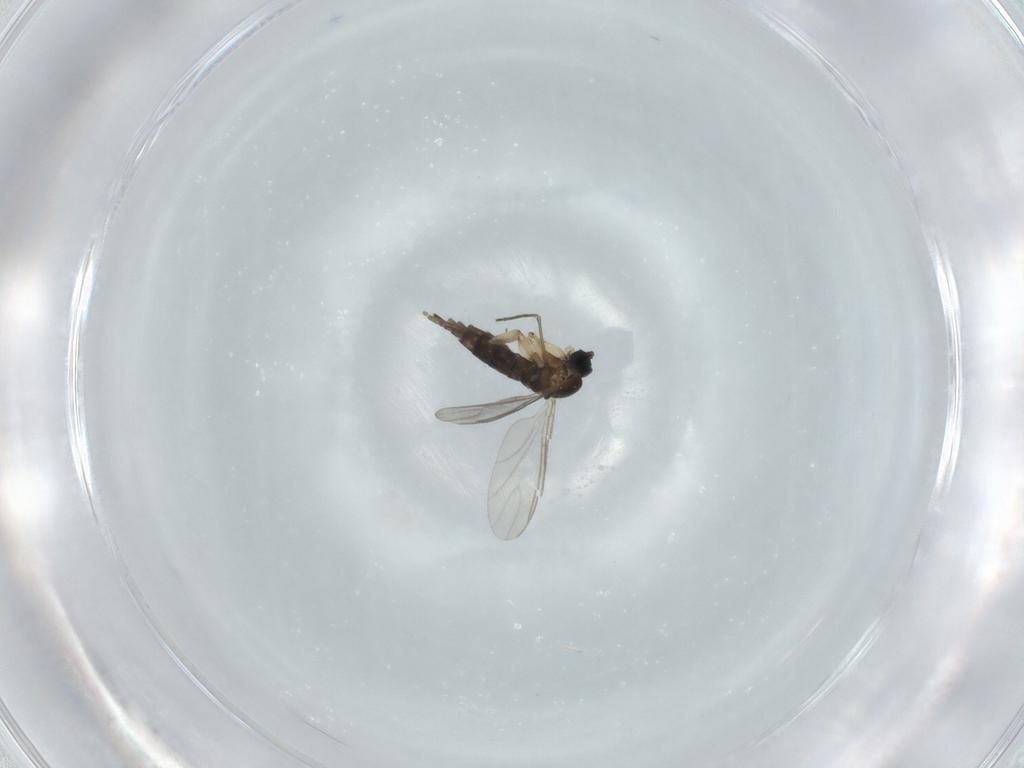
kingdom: Animalia
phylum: Arthropoda
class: Insecta
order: Diptera
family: Sciaridae
